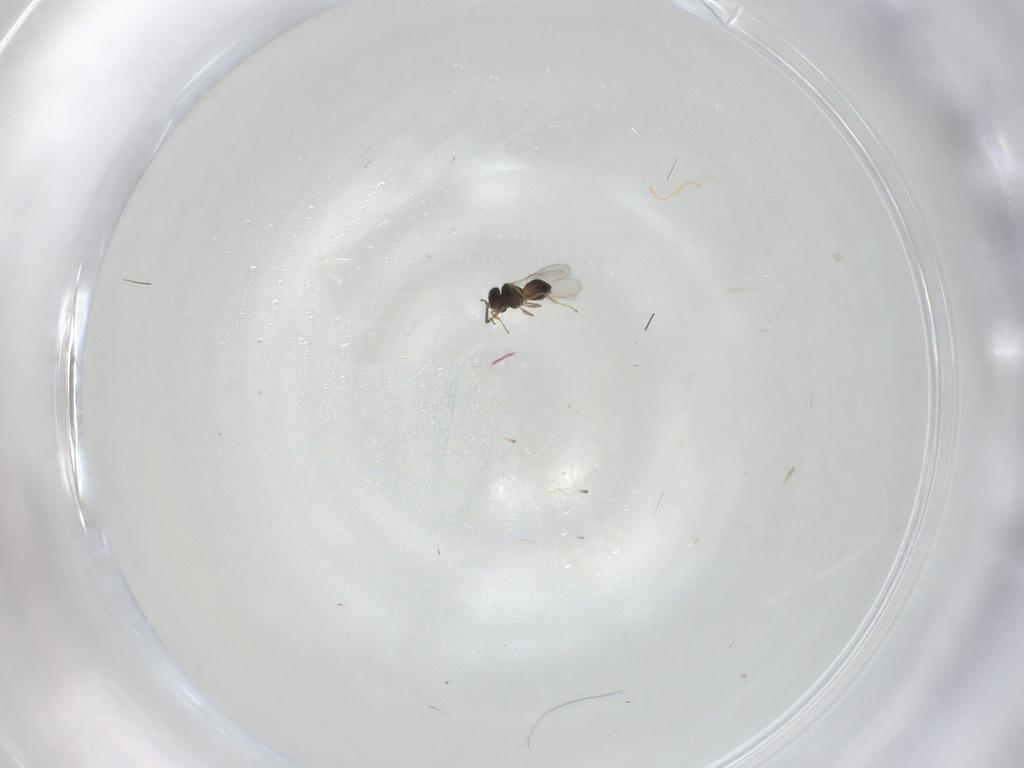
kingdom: Animalia
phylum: Arthropoda
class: Insecta
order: Hymenoptera
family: Scelionidae
